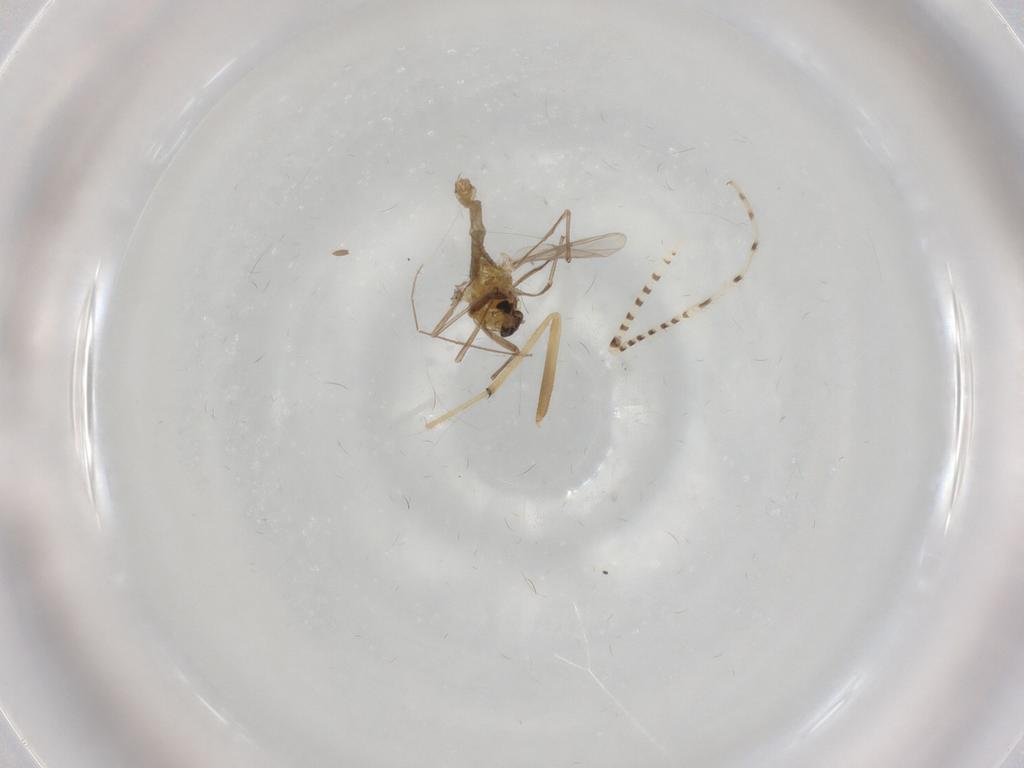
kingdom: Animalia
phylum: Arthropoda
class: Insecta
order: Diptera
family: Chironomidae
